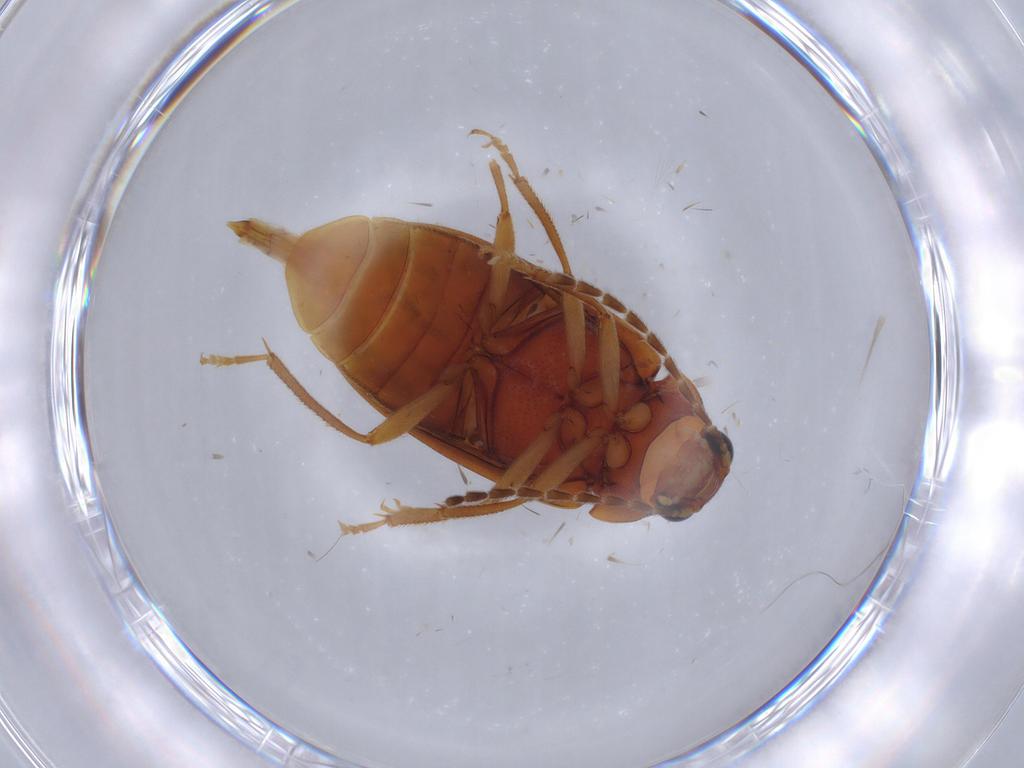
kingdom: Animalia
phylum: Arthropoda
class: Insecta
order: Coleoptera
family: Ptilodactylidae
